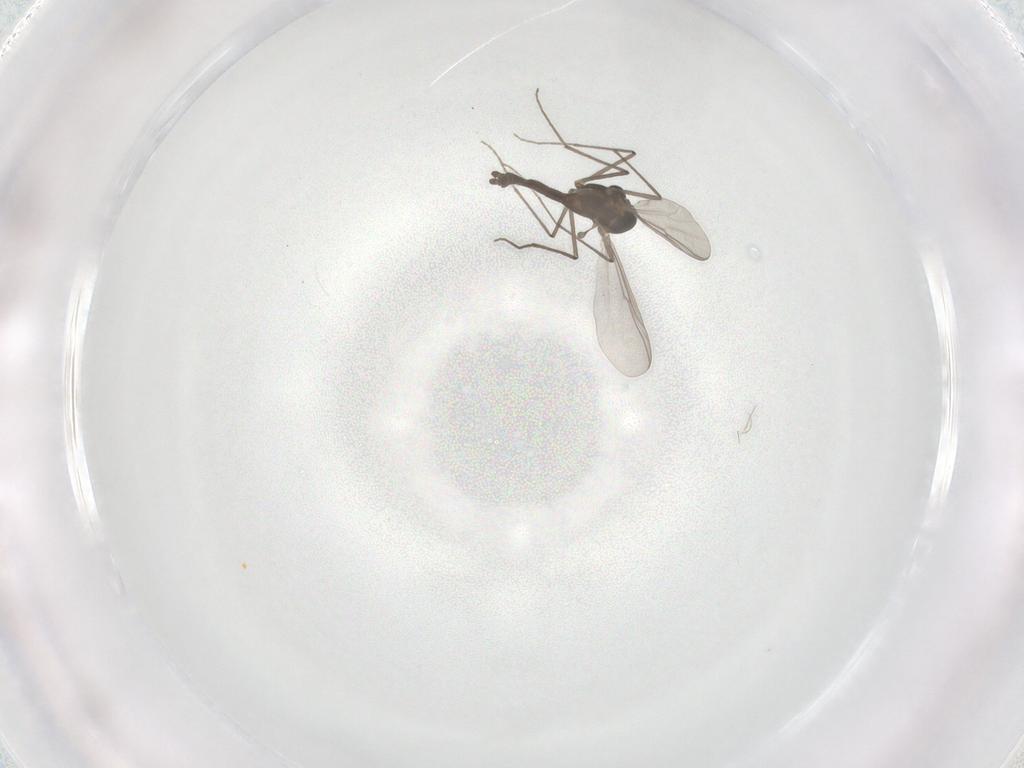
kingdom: Animalia
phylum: Arthropoda
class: Insecta
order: Diptera
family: Chironomidae
